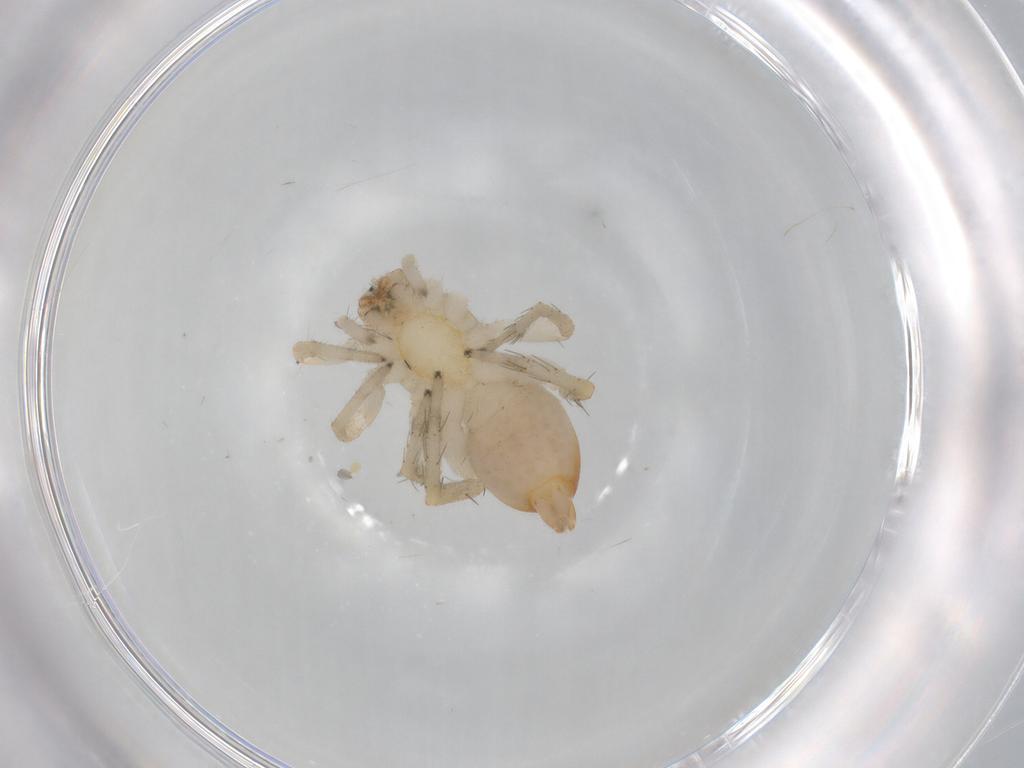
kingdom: Animalia
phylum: Arthropoda
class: Arachnida
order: Araneae
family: Clubionidae
